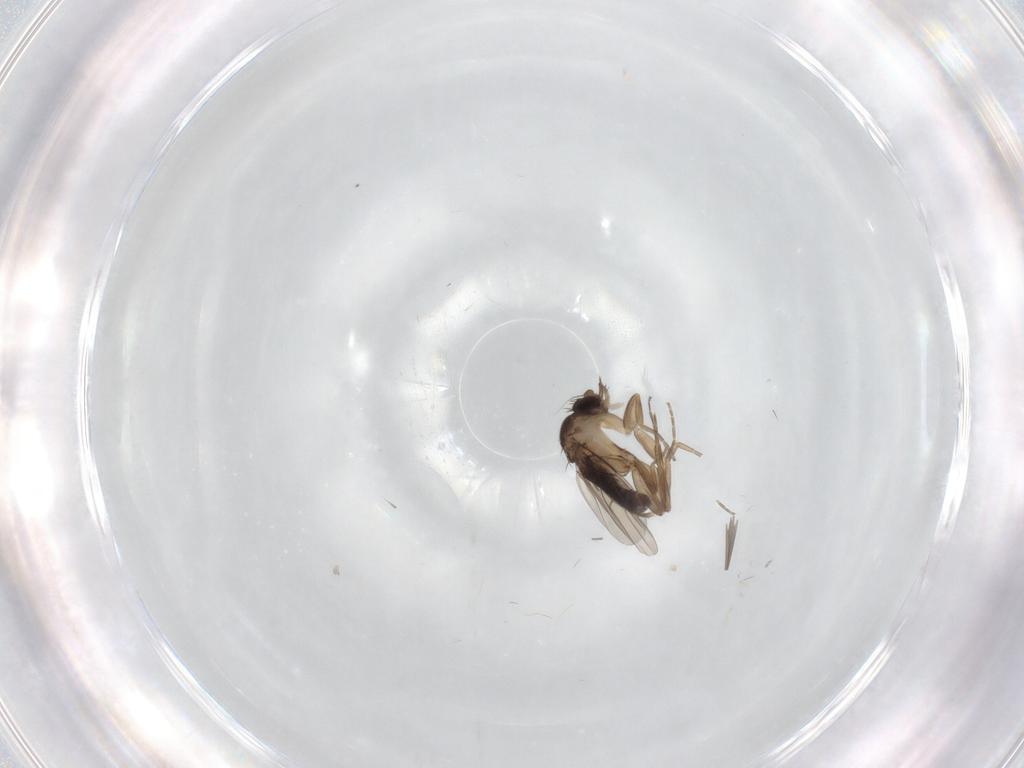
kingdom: Animalia
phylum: Arthropoda
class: Insecta
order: Diptera
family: Phoridae
